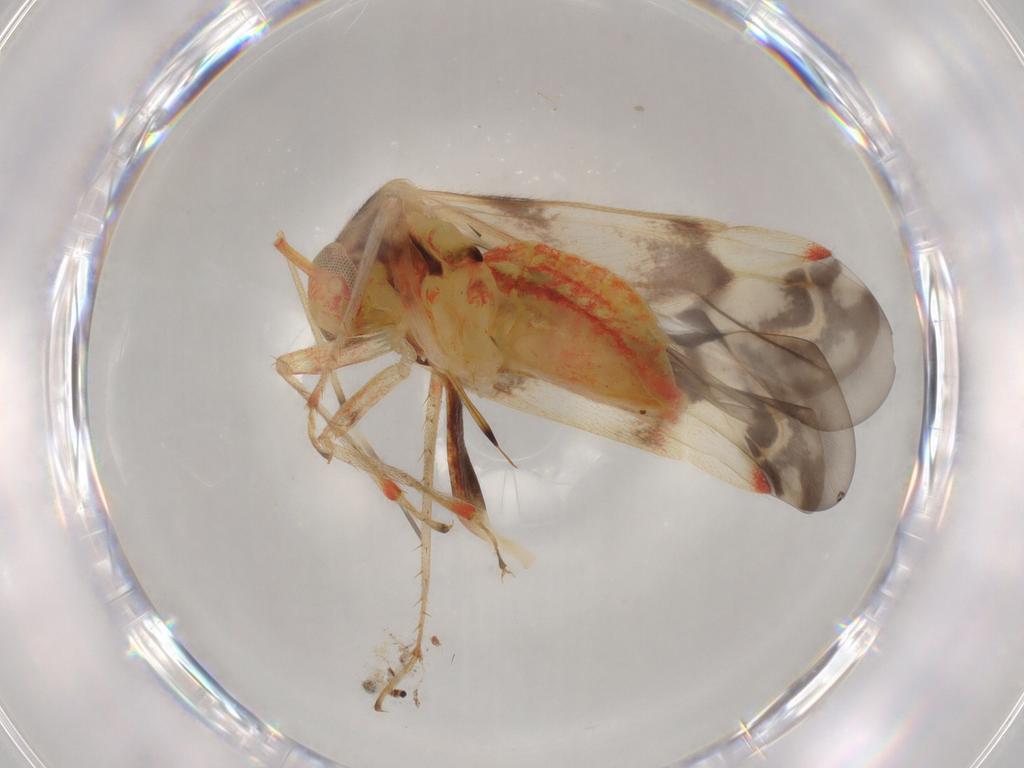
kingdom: Animalia
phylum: Arthropoda
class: Insecta
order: Hemiptera
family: Miridae
